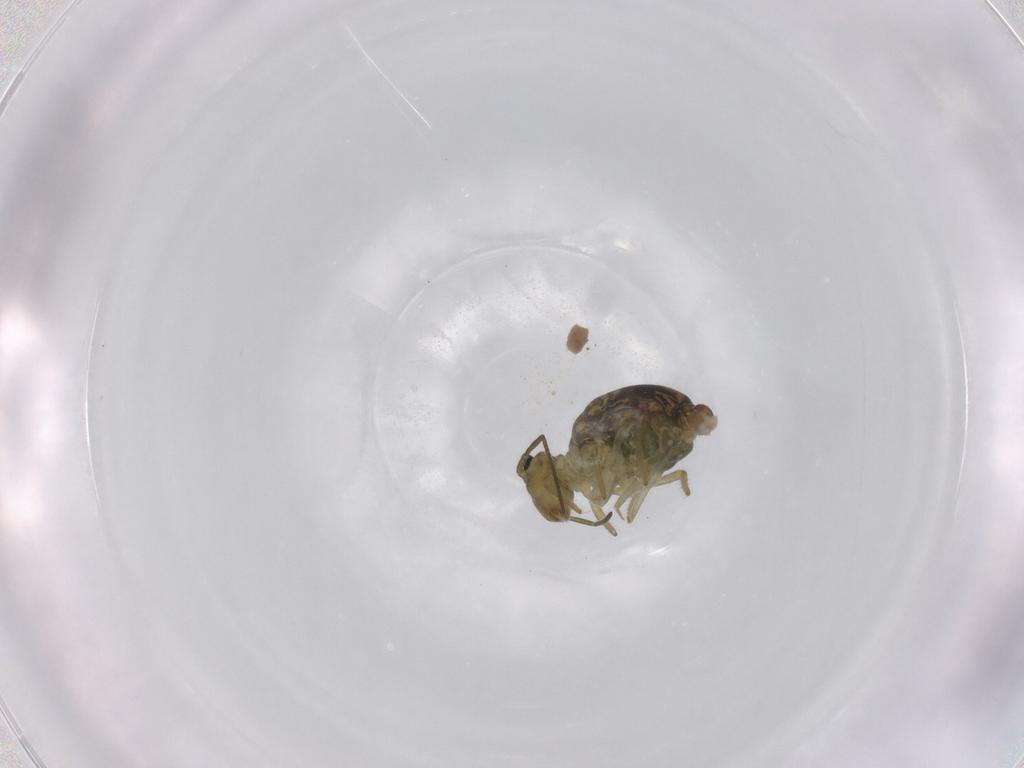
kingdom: Animalia
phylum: Arthropoda
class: Collembola
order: Symphypleona
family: Sminthuridae
